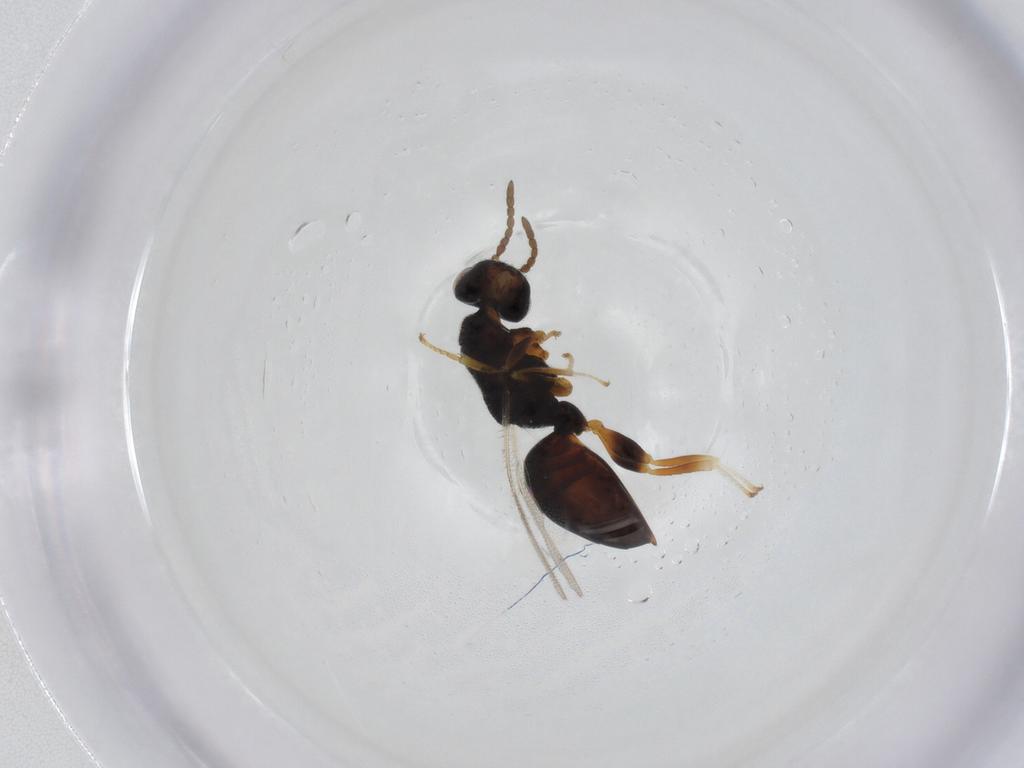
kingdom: Animalia
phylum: Arthropoda
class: Insecta
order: Hymenoptera
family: Eurytomidae
